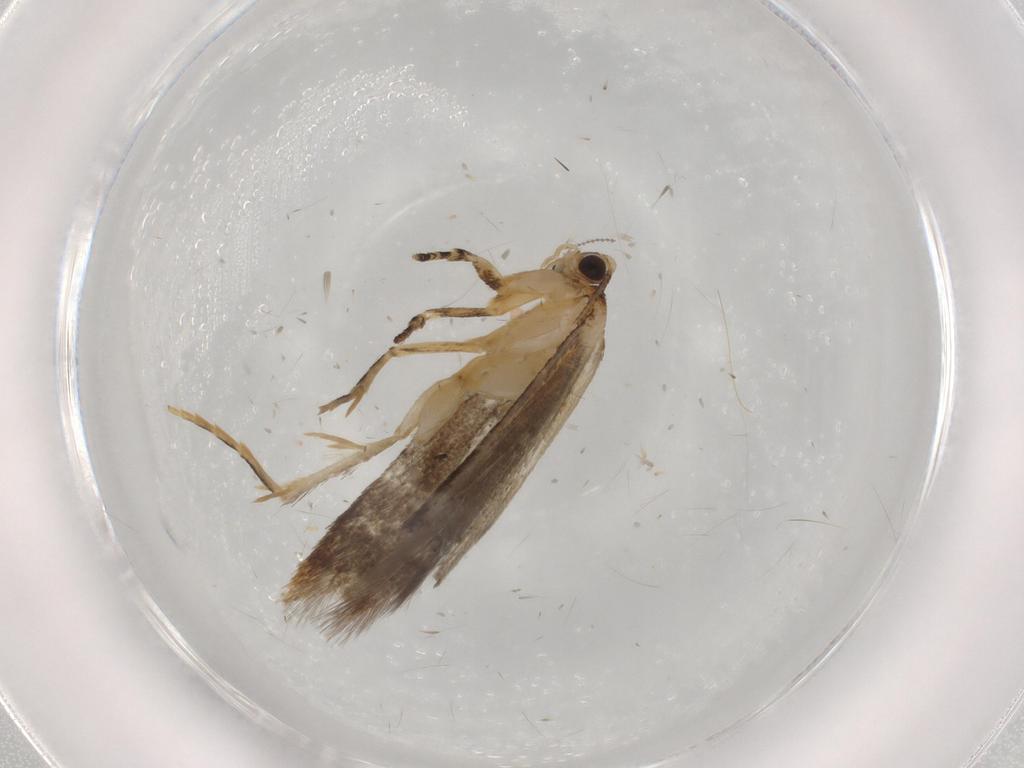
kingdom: Animalia
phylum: Arthropoda
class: Insecta
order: Lepidoptera
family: Tineidae
